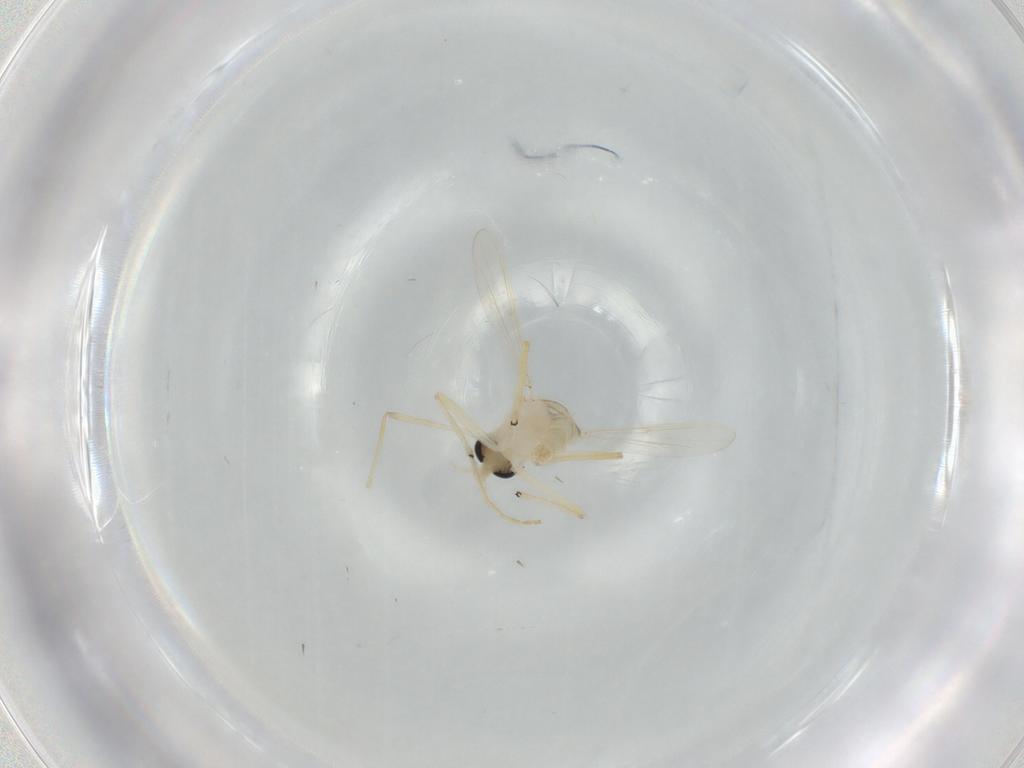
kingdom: Animalia
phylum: Arthropoda
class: Insecta
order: Diptera
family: Chironomidae
